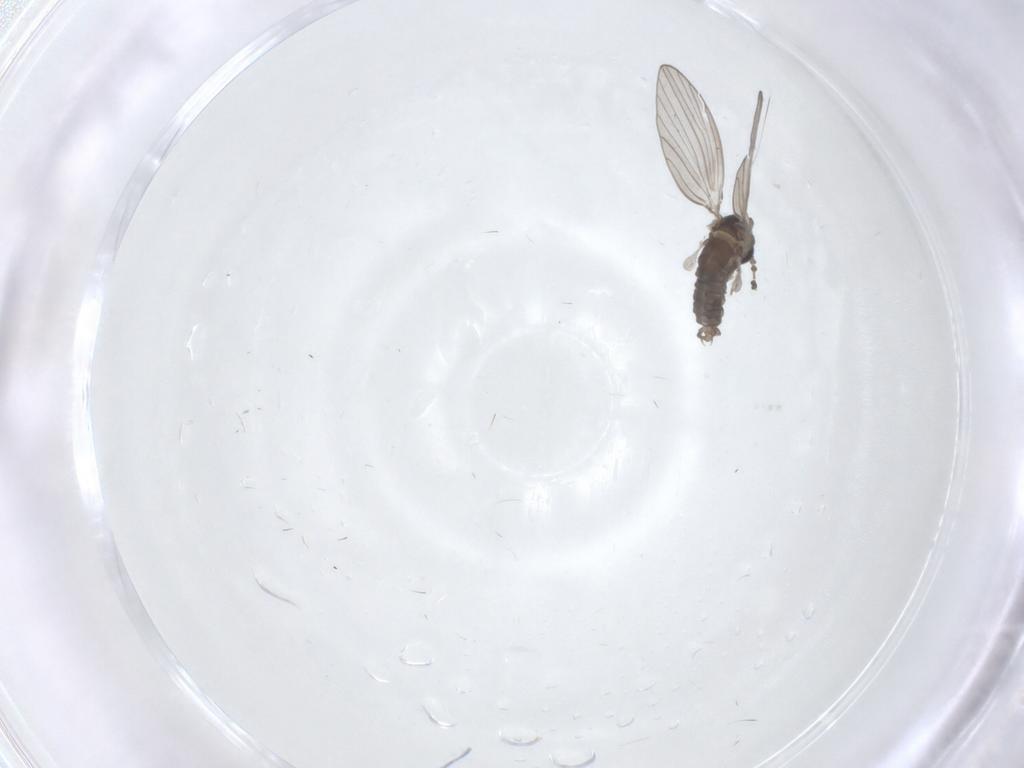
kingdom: Animalia
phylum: Arthropoda
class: Insecta
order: Diptera
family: Psychodidae
